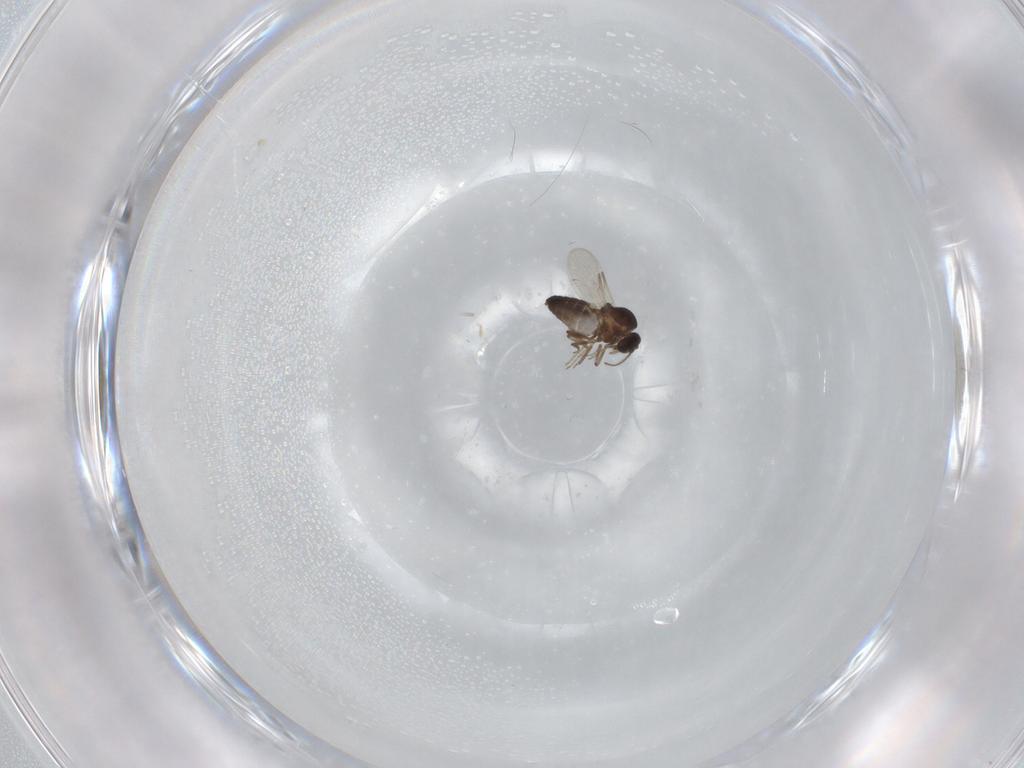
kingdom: Animalia
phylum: Arthropoda
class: Insecta
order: Diptera
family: Ceratopogonidae
